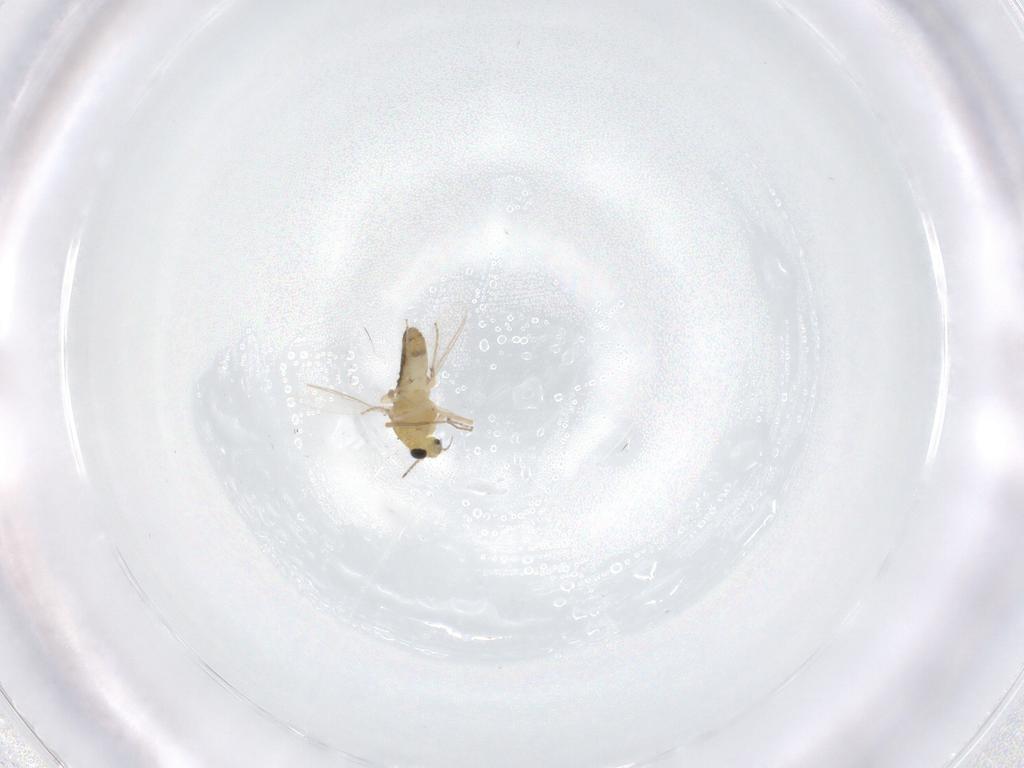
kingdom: Animalia
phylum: Arthropoda
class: Insecta
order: Diptera
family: Chironomidae
